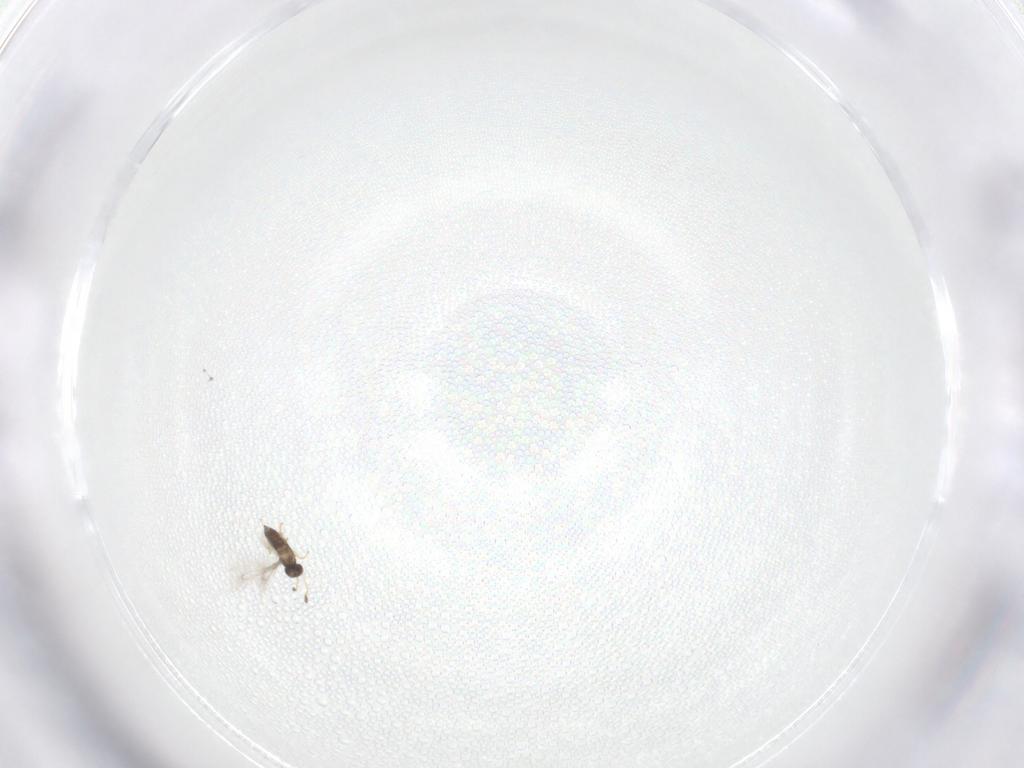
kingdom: Animalia
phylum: Arthropoda
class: Insecta
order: Hymenoptera
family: Mymaridae
